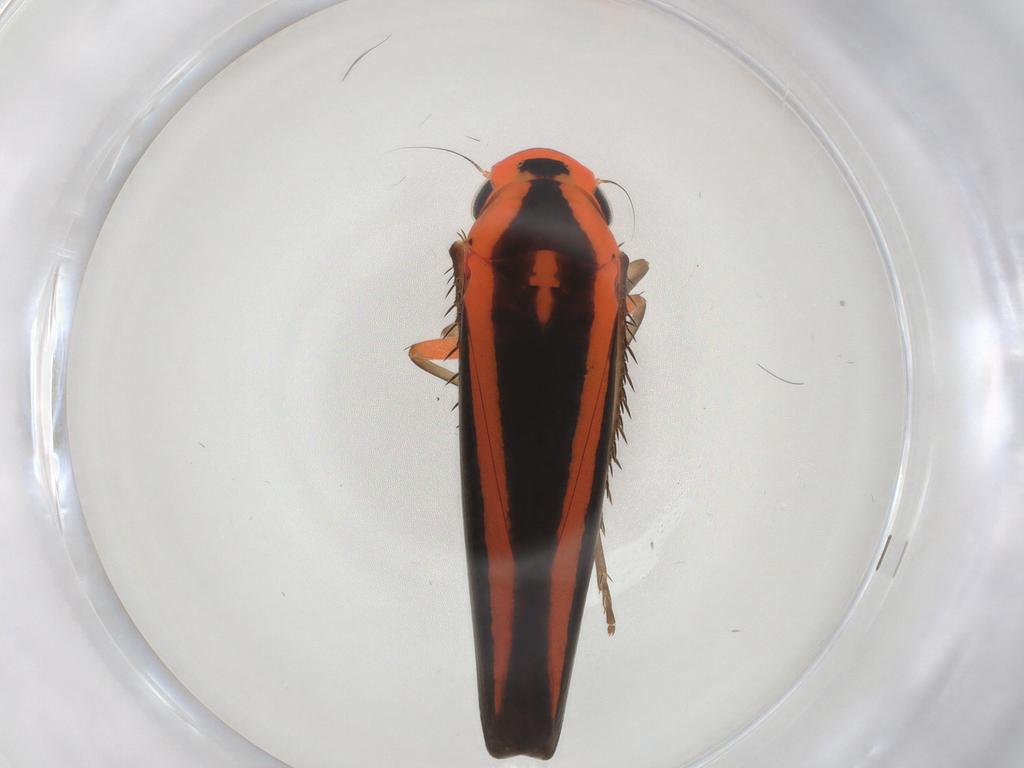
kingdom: Animalia
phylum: Arthropoda
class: Insecta
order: Hemiptera
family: Cicadellidae
